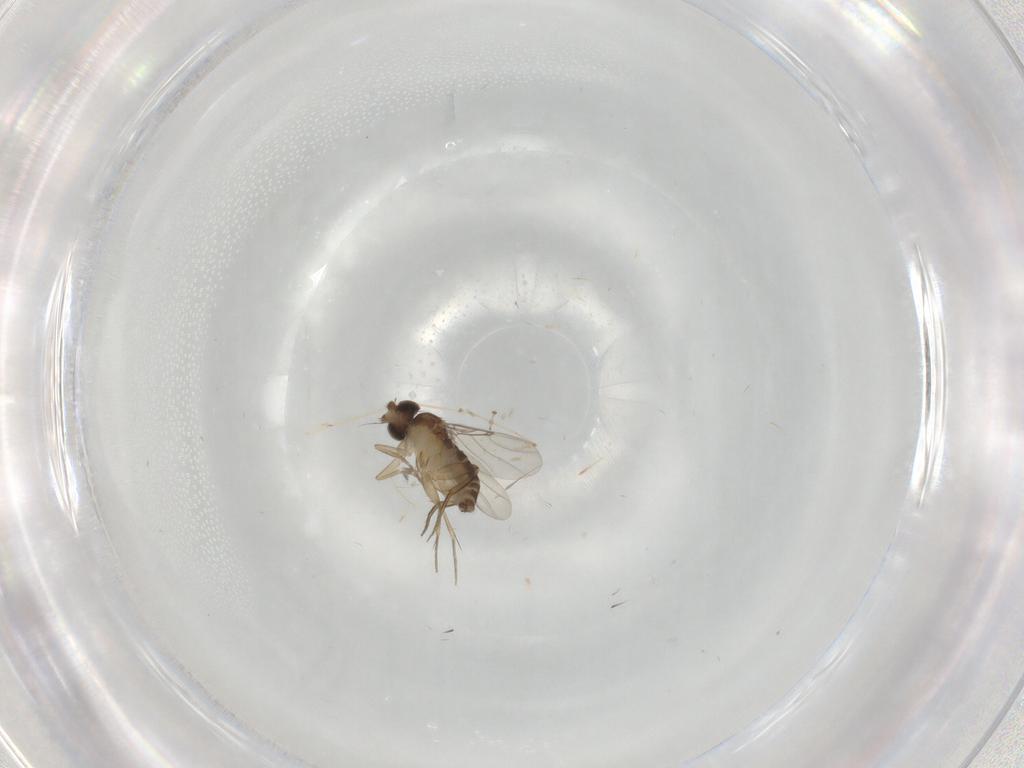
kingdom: Animalia
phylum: Arthropoda
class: Insecta
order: Diptera
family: Phoridae
